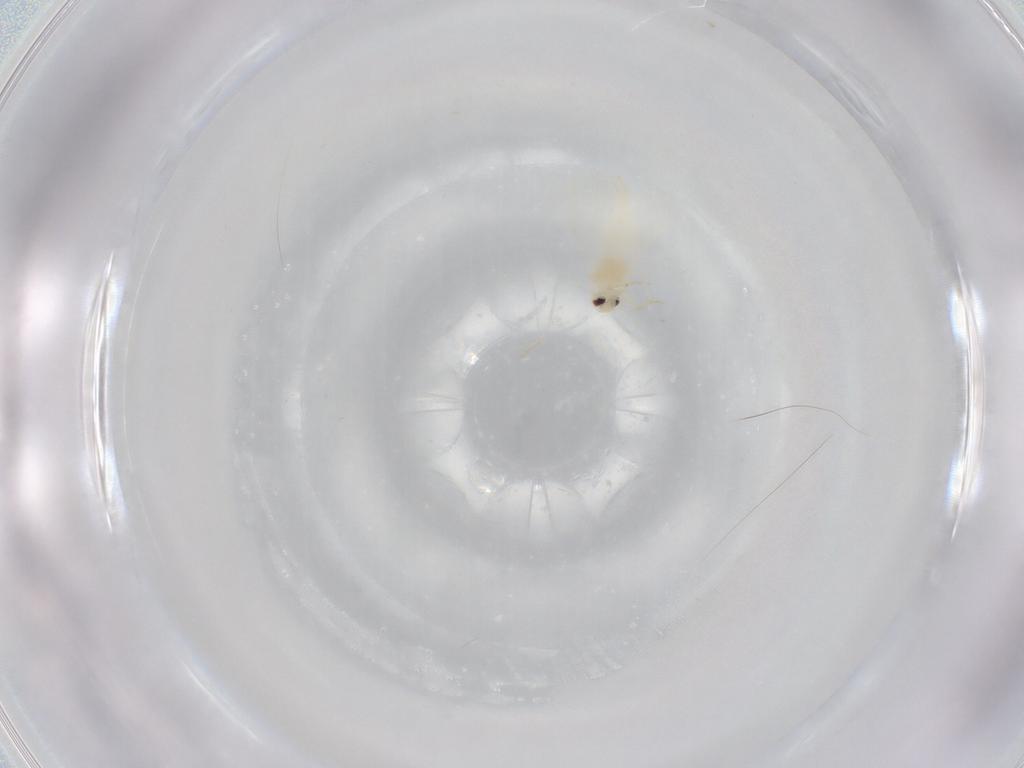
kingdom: Animalia
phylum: Arthropoda
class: Insecta
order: Hemiptera
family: Aleyrodidae
